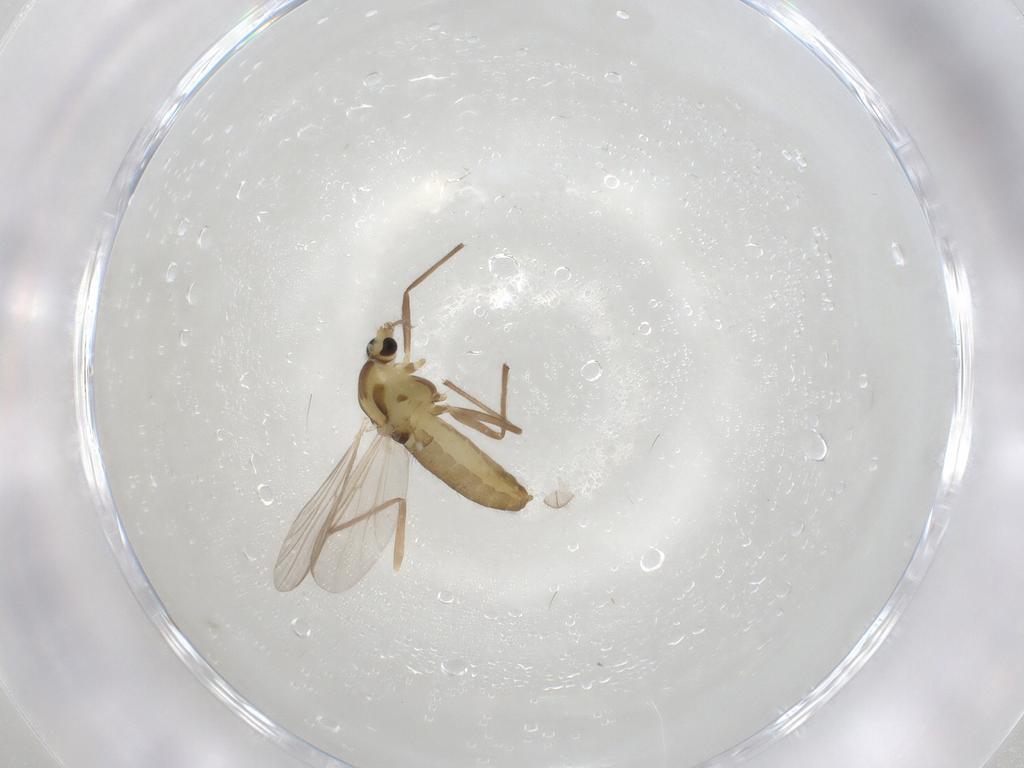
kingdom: Animalia
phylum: Arthropoda
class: Insecta
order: Diptera
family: Chironomidae
